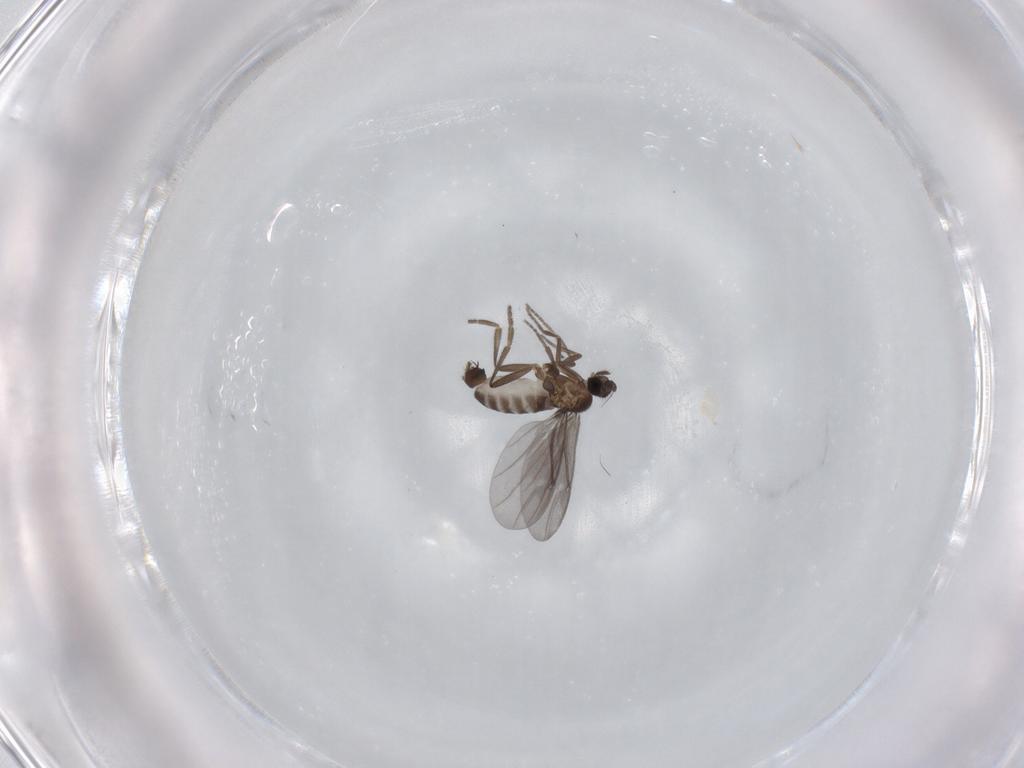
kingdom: Animalia
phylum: Arthropoda
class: Insecta
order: Diptera
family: Phoridae
